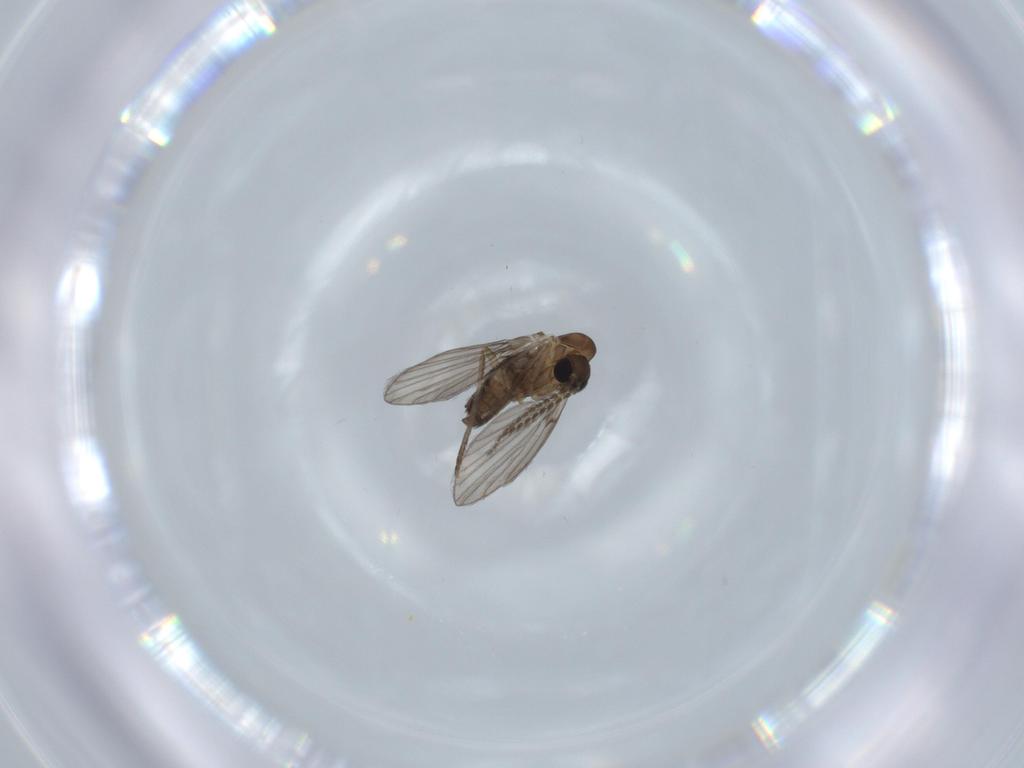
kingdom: Animalia
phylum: Arthropoda
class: Insecta
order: Diptera
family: Psychodidae
